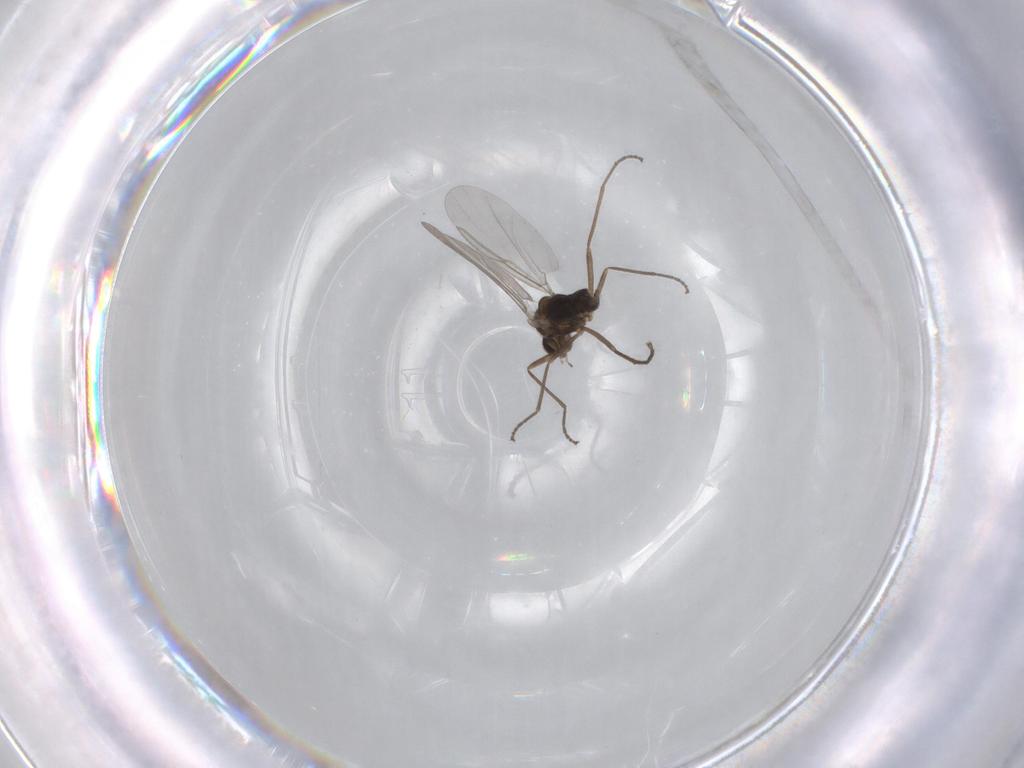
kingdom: Animalia
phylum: Arthropoda
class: Insecta
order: Diptera
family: Cecidomyiidae
